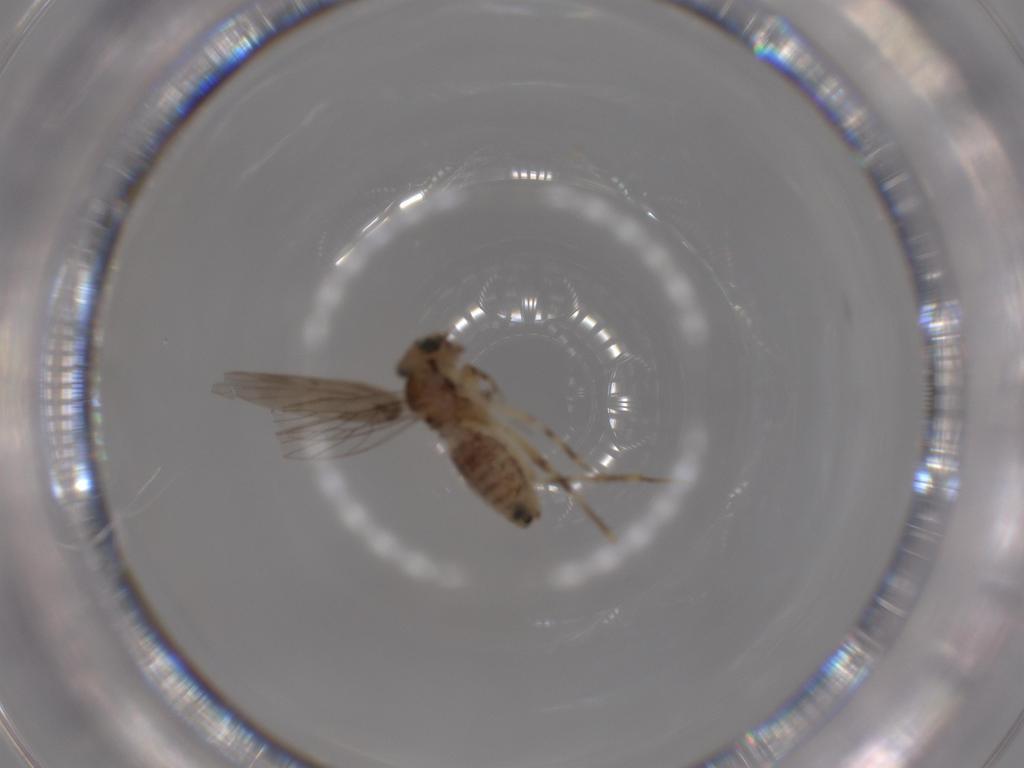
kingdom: Animalia
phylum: Arthropoda
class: Insecta
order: Psocodea
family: Lepidopsocidae
